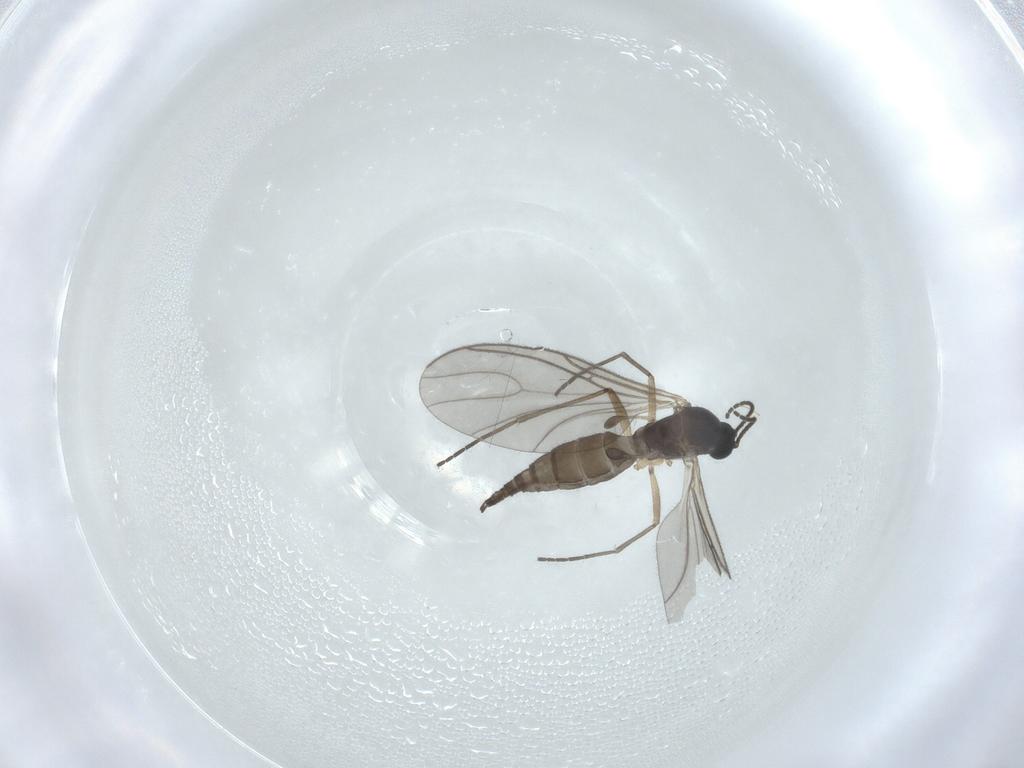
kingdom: Animalia
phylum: Arthropoda
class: Insecta
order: Diptera
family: Sciaridae
